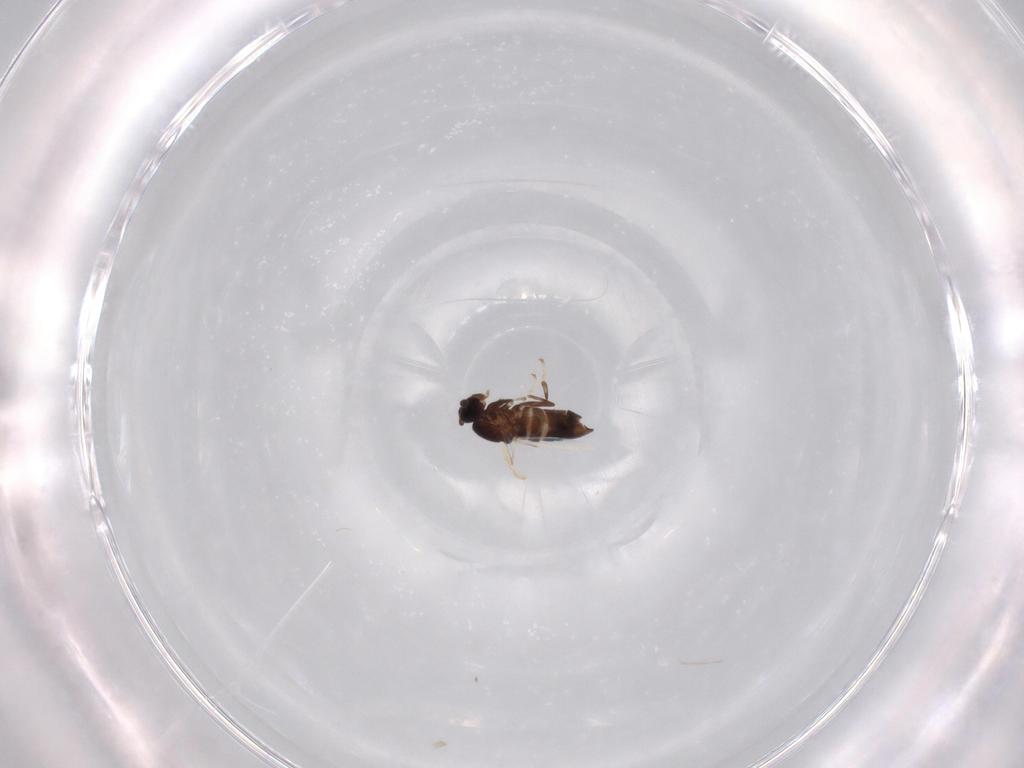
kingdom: Animalia
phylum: Arthropoda
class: Insecta
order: Diptera
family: Scatopsidae
